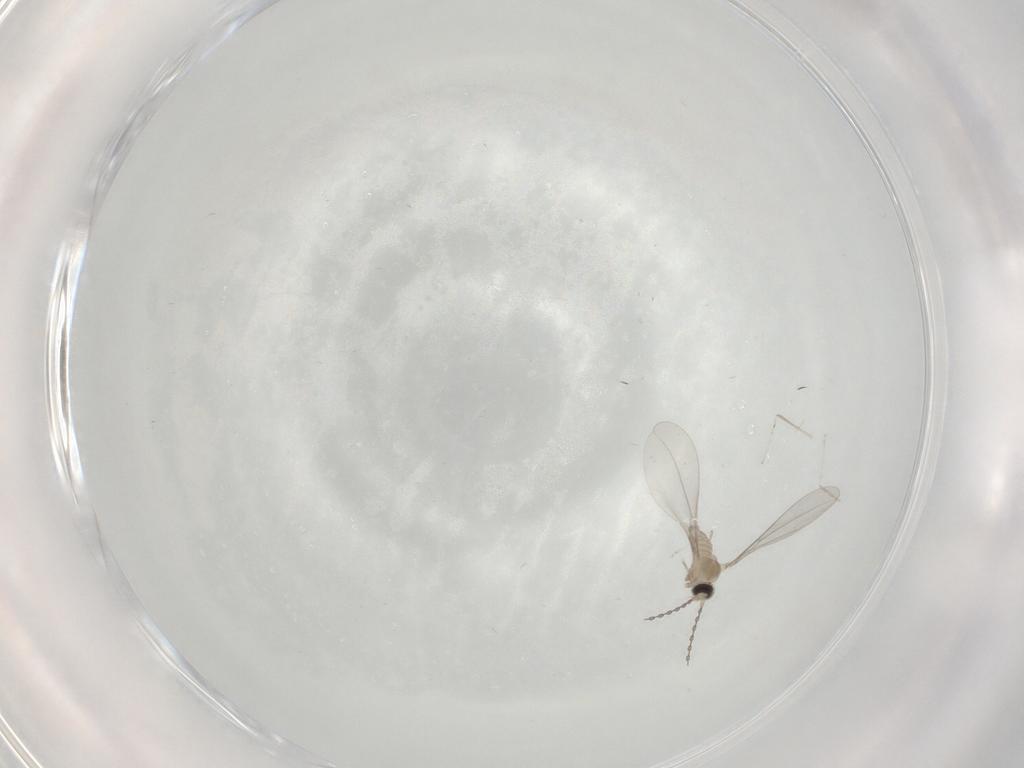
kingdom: Animalia
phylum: Arthropoda
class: Insecta
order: Diptera
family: Cecidomyiidae
